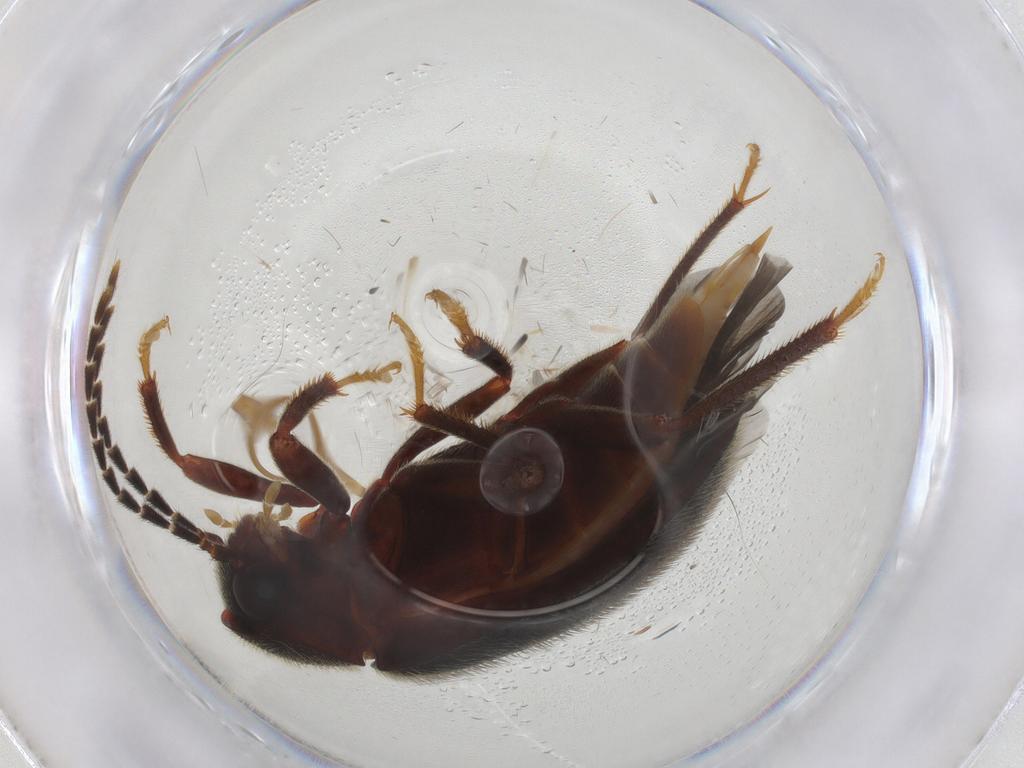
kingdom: Animalia
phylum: Arthropoda
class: Insecta
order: Coleoptera
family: Ptilodactylidae
